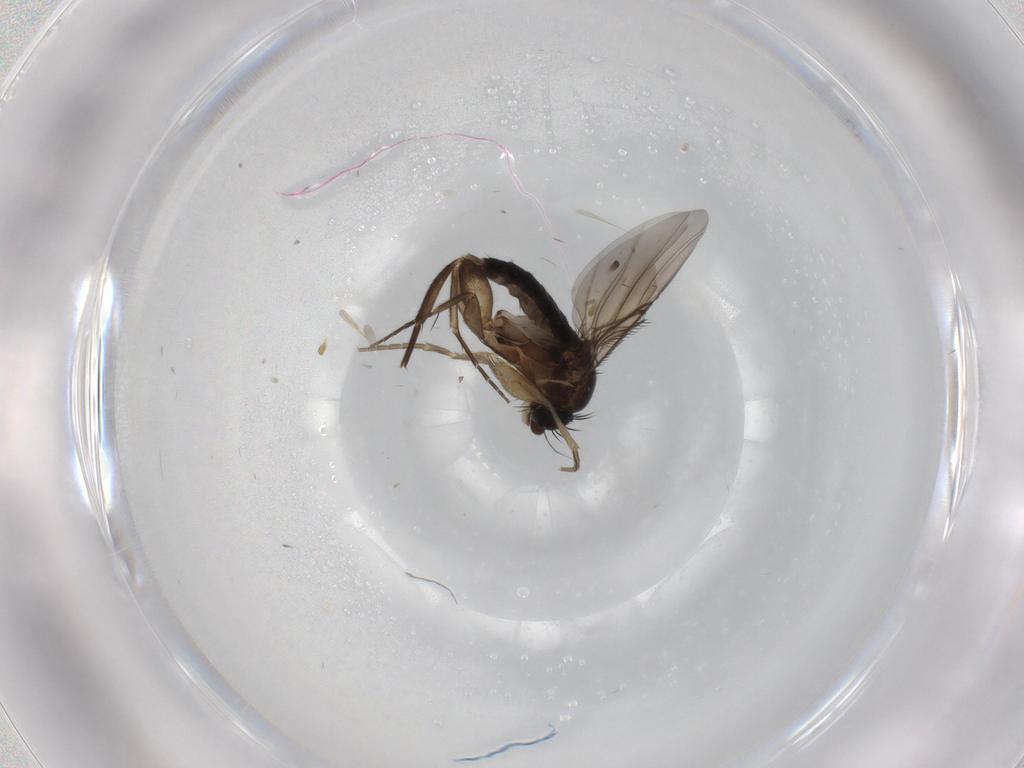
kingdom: Animalia
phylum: Arthropoda
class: Insecta
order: Diptera
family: Phoridae
